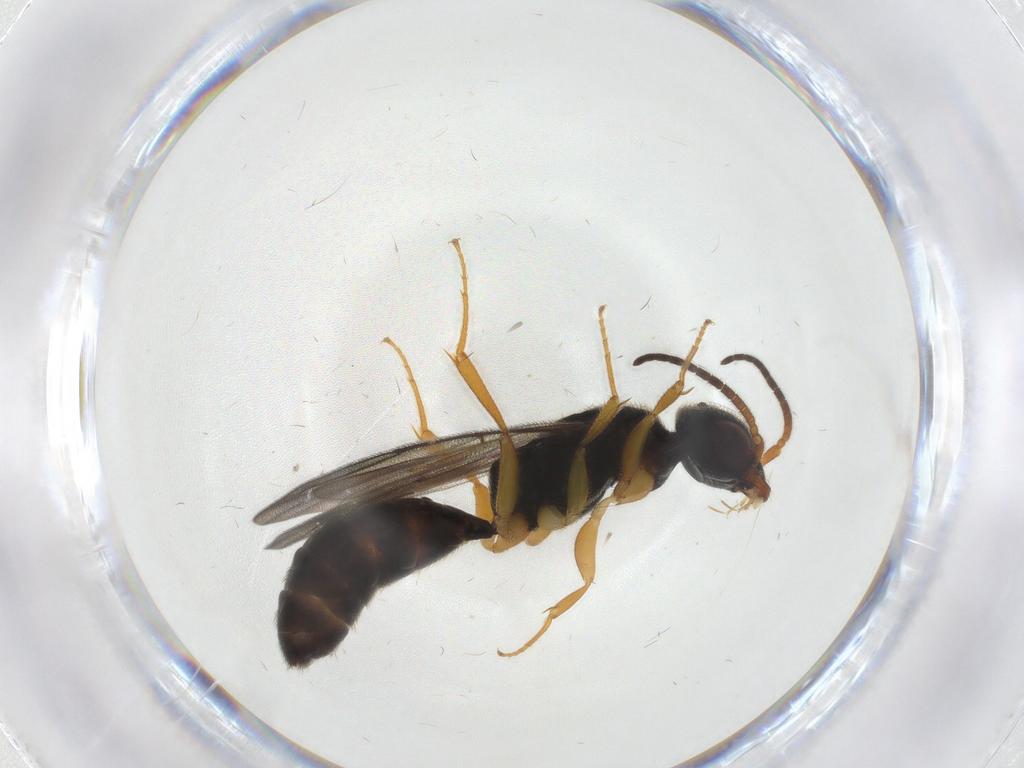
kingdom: Animalia
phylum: Arthropoda
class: Insecta
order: Hymenoptera
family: Bethylidae
